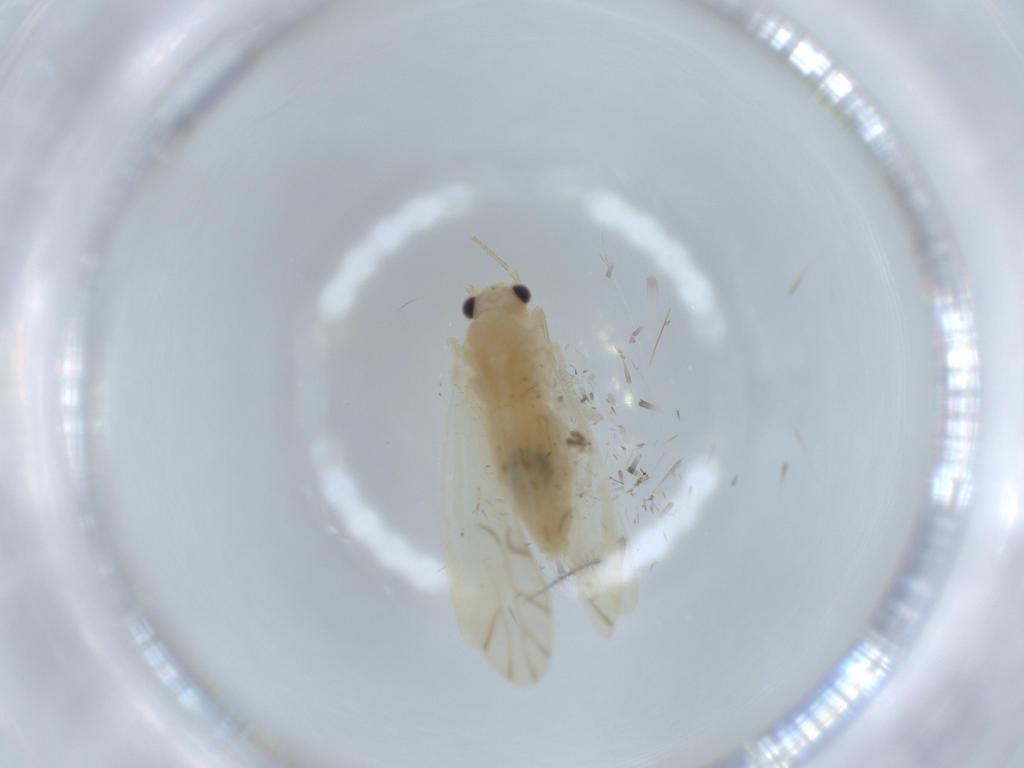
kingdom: Animalia
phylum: Arthropoda
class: Insecta
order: Psocodea
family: Caeciliusidae
